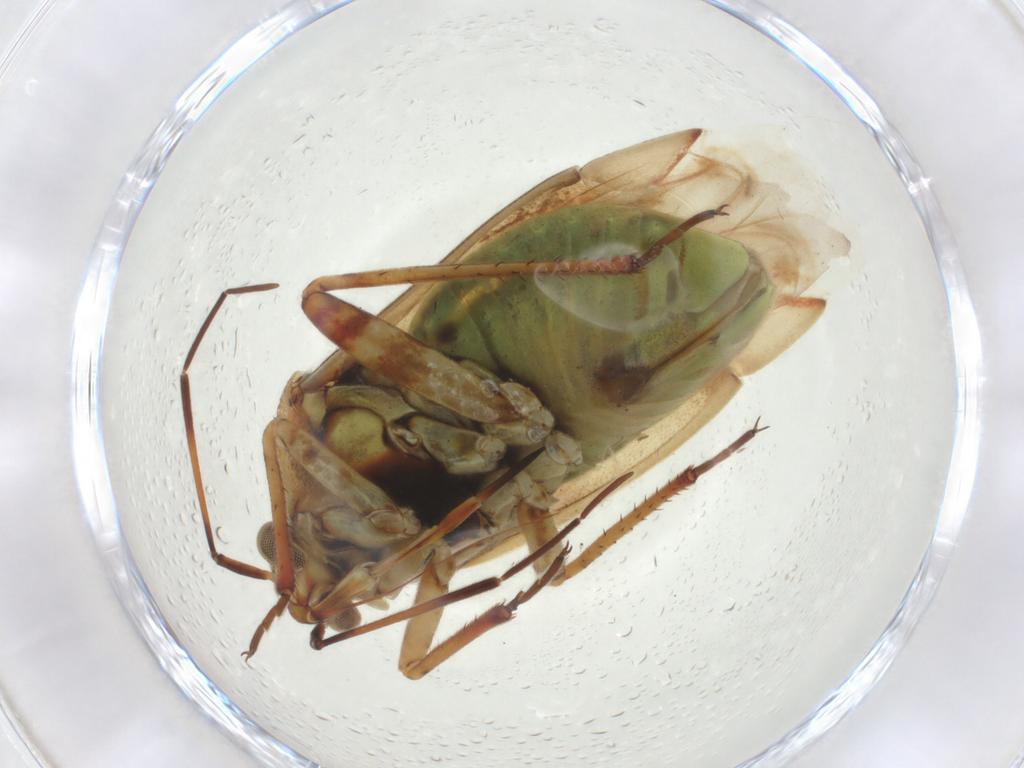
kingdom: Animalia
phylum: Arthropoda
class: Insecta
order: Hemiptera
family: Miridae
